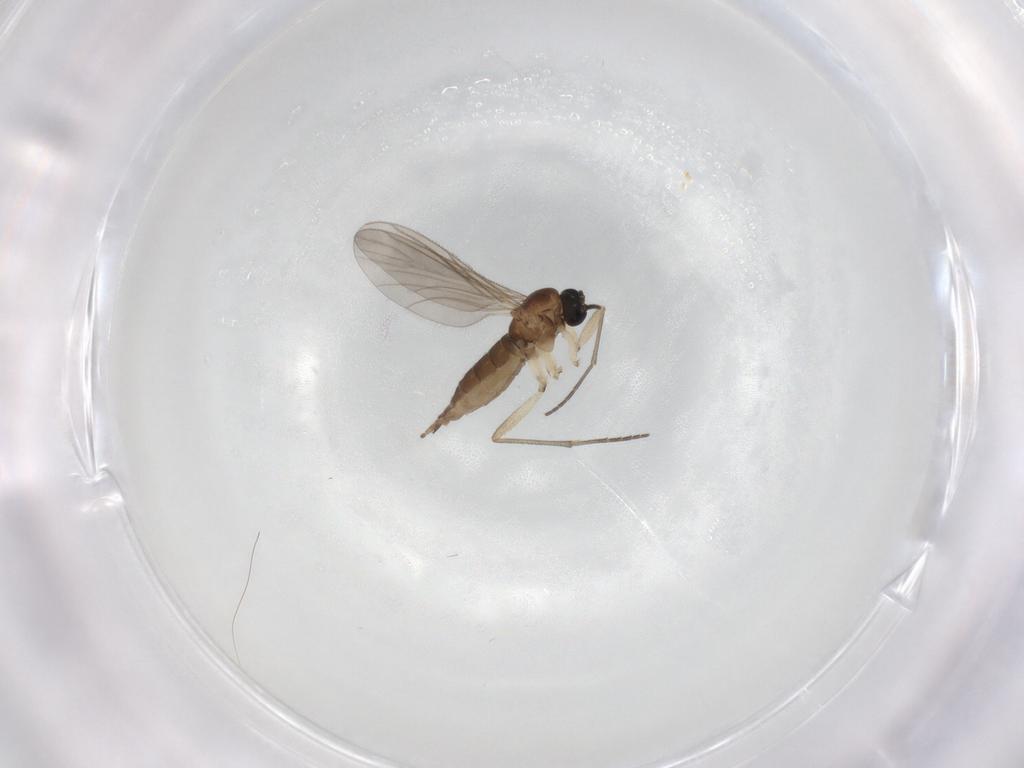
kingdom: Animalia
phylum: Arthropoda
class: Insecta
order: Diptera
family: Sciaridae
